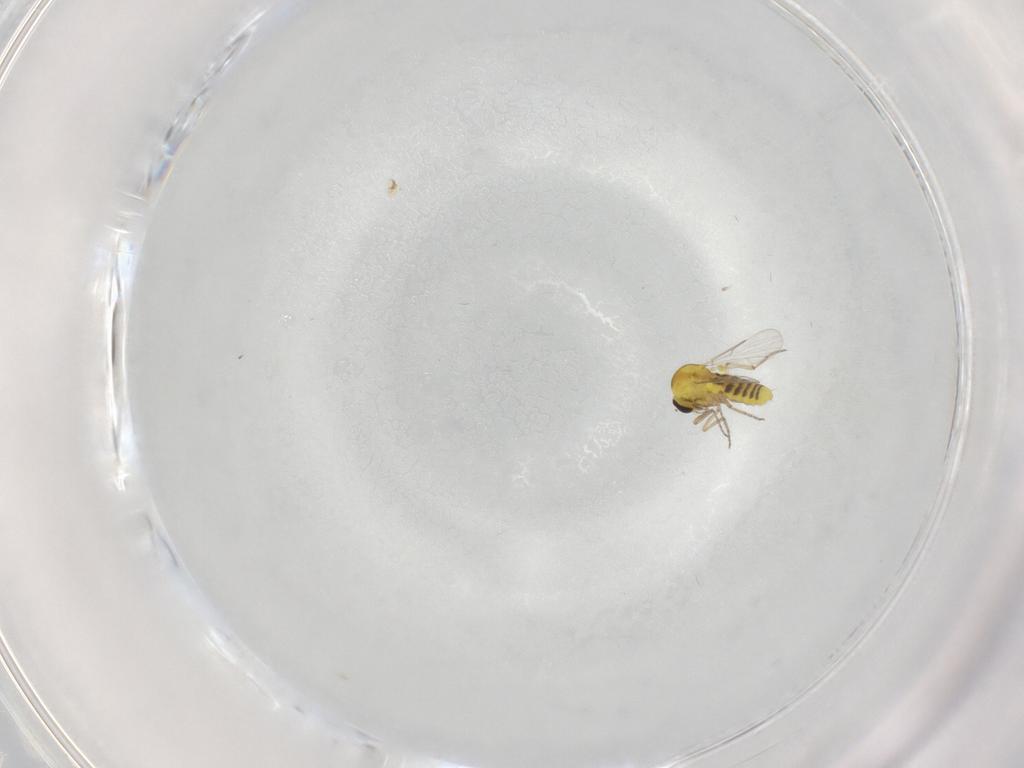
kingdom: Animalia
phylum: Arthropoda
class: Insecta
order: Diptera
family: Ceratopogonidae
